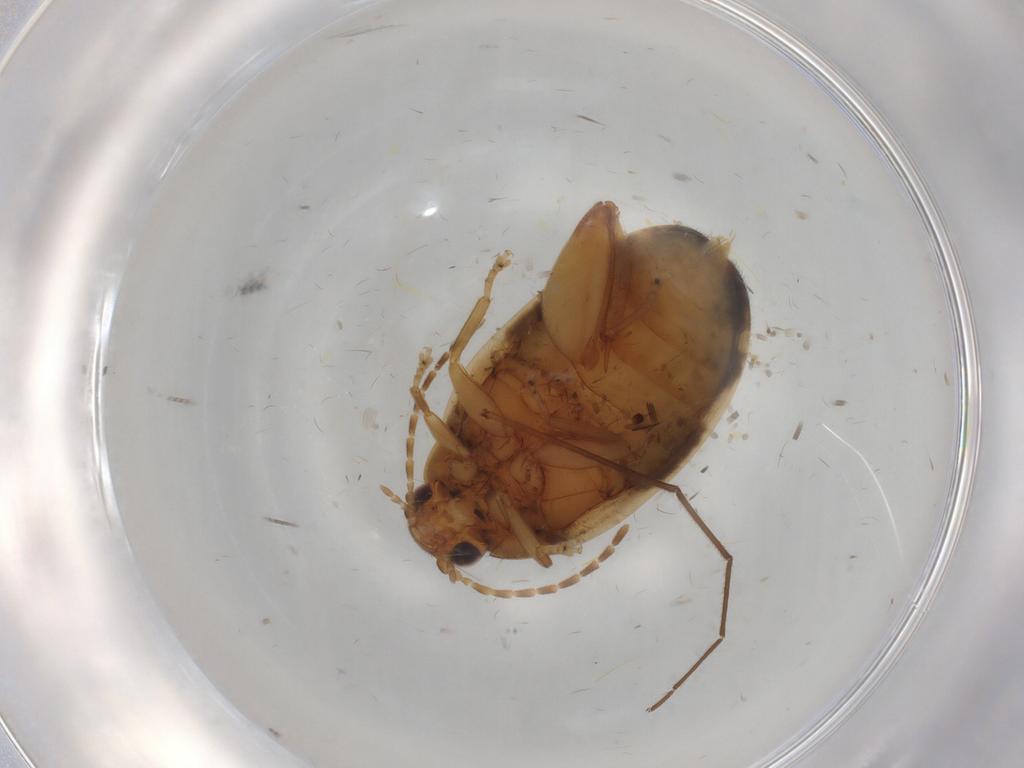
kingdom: Animalia
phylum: Arthropoda
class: Insecta
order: Coleoptera
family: Scirtidae
